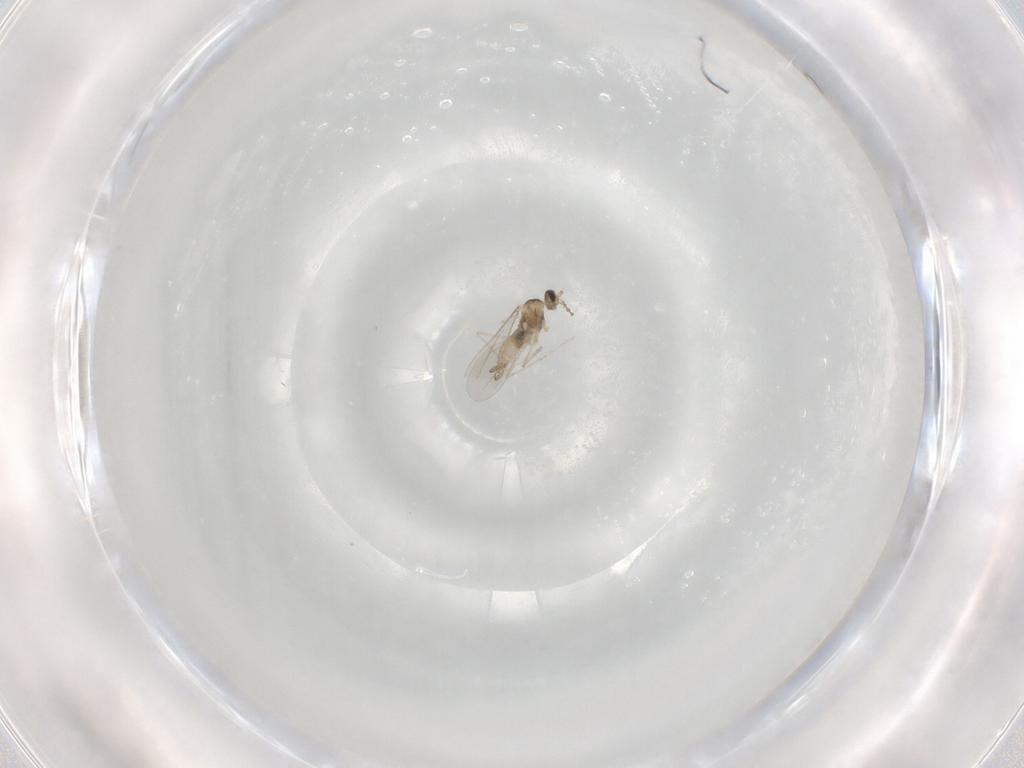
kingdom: Animalia
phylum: Arthropoda
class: Insecta
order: Diptera
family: Cecidomyiidae
